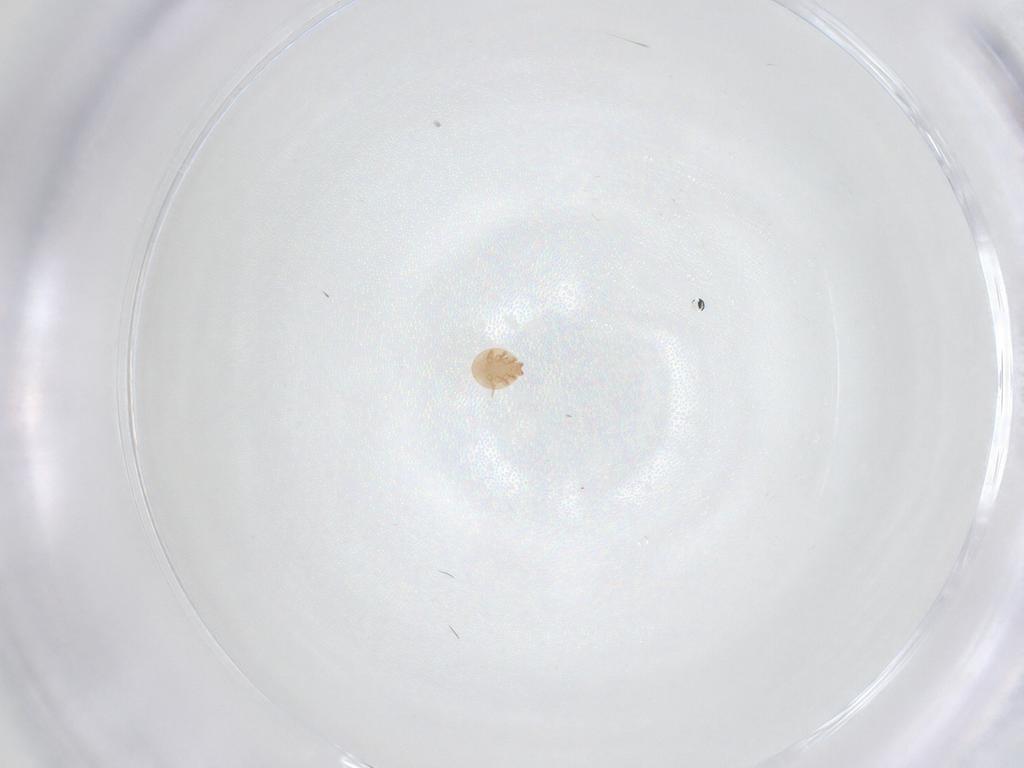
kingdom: Animalia
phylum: Arthropoda
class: Arachnida
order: Mesostigmata
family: Trematuridae
